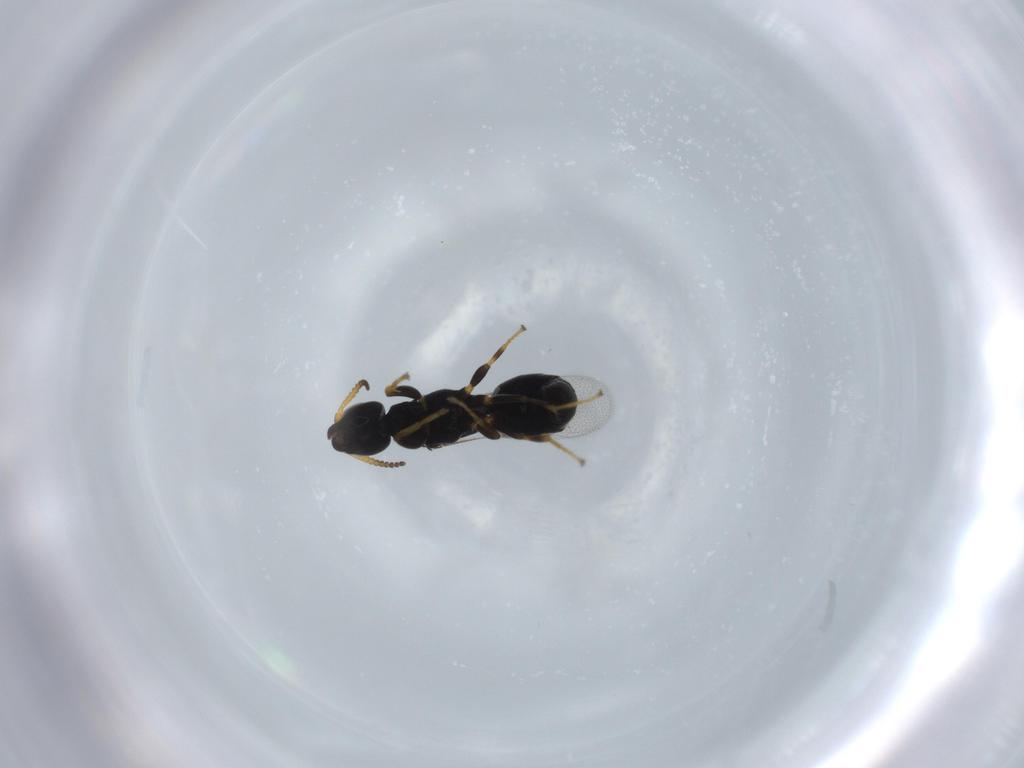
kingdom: Animalia
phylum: Arthropoda
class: Insecta
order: Hymenoptera
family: Bethylidae
